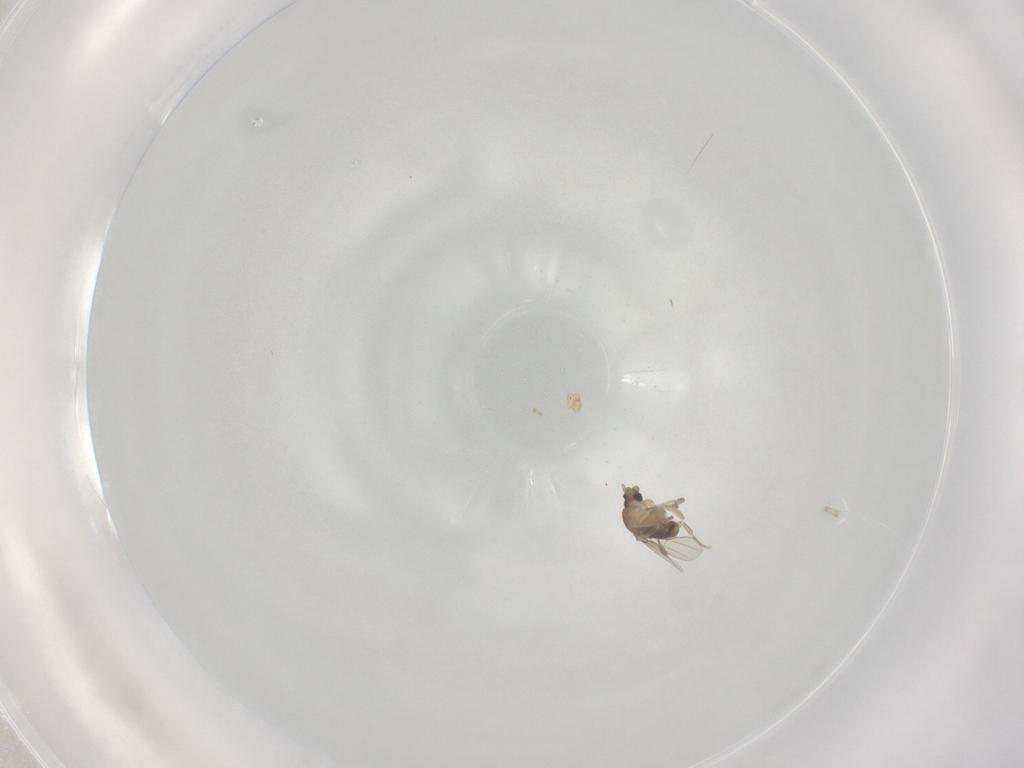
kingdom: Animalia
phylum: Arthropoda
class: Insecta
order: Diptera
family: Phoridae
